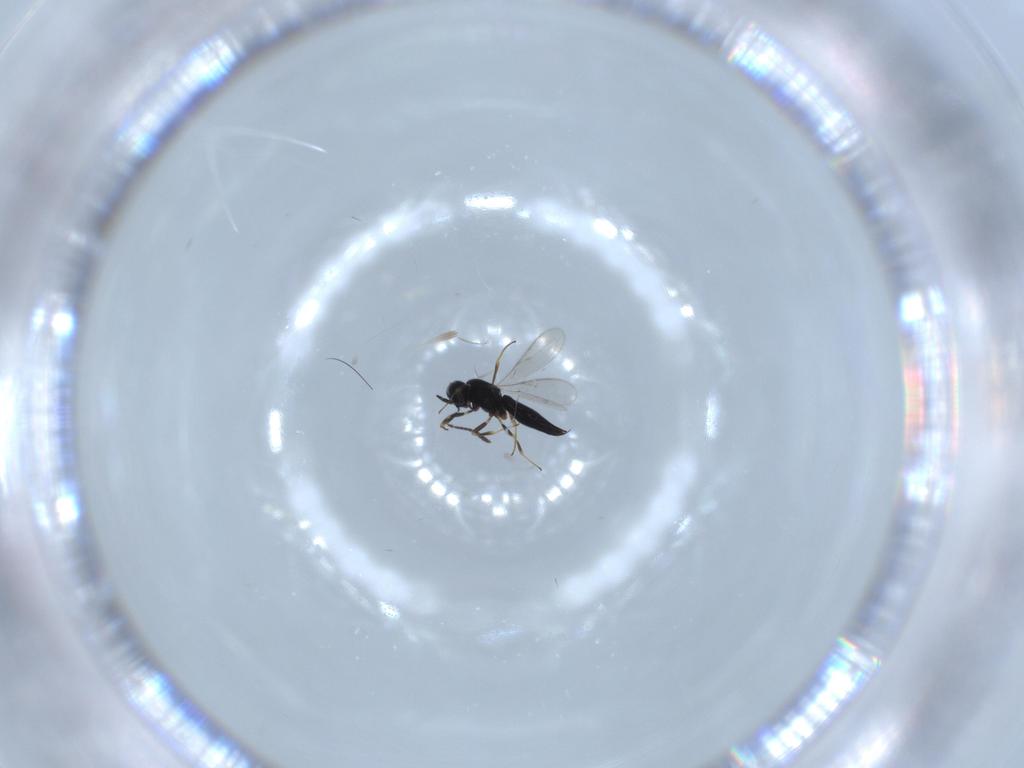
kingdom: Animalia
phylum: Arthropoda
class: Insecta
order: Hymenoptera
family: Scelionidae
